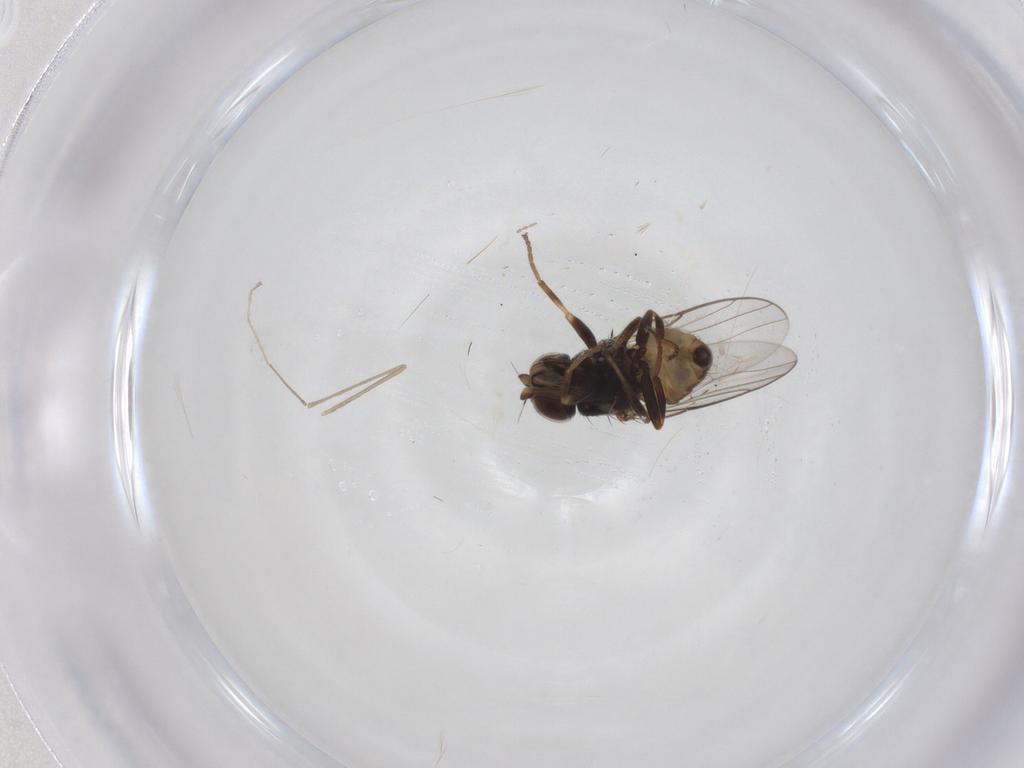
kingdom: Animalia
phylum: Arthropoda
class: Insecta
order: Diptera
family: Chloropidae
